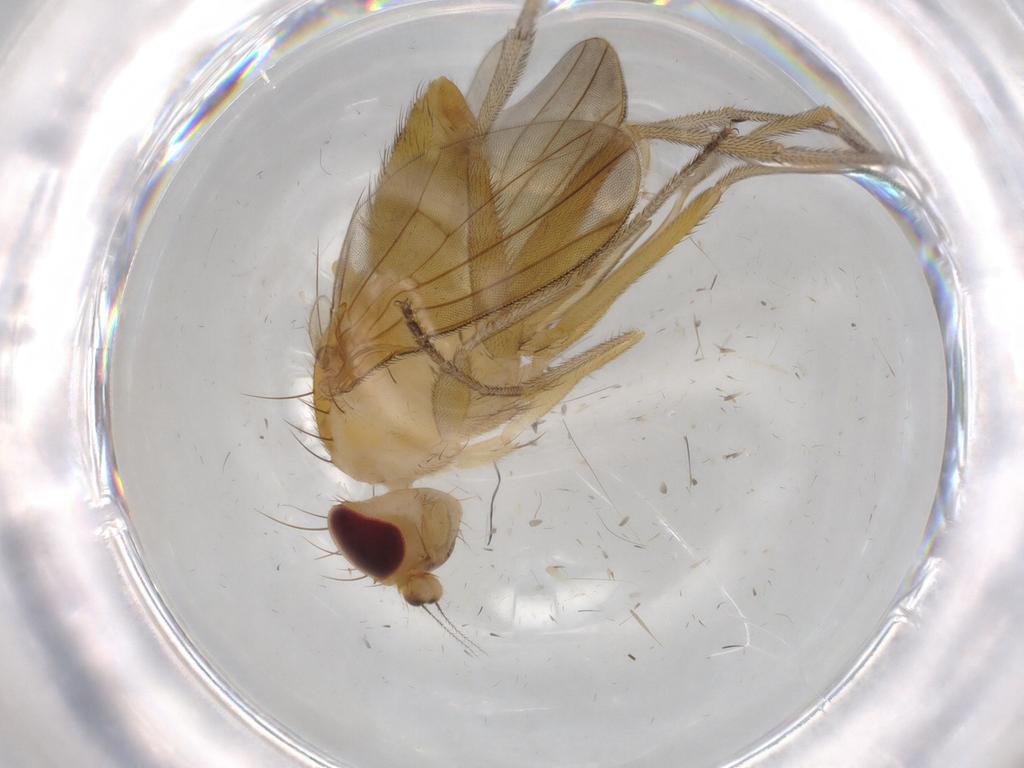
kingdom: Animalia
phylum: Arthropoda
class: Insecta
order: Diptera
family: Clusiidae
